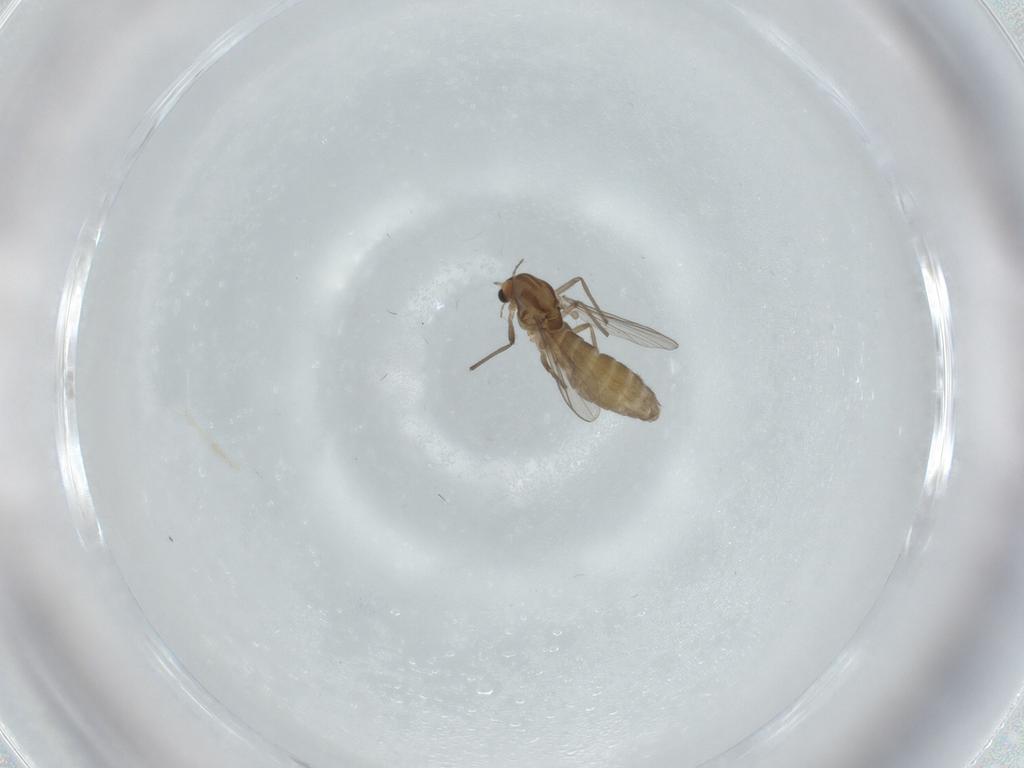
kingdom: Animalia
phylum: Arthropoda
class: Insecta
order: Diptera
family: Chironomidae
